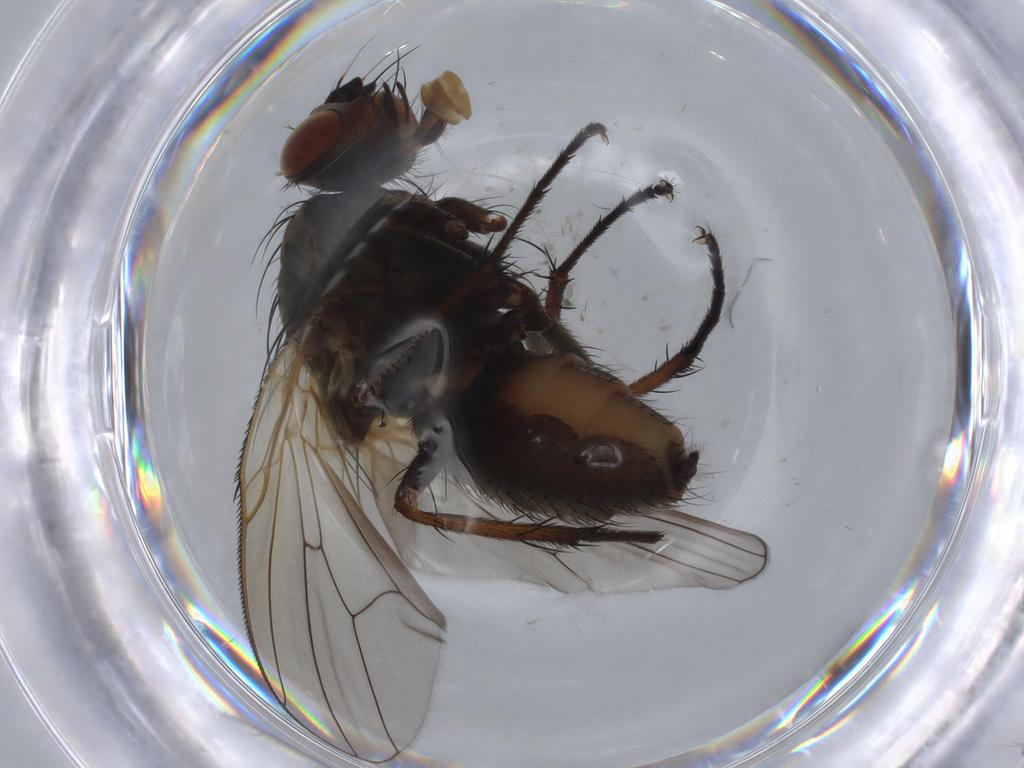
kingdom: Animalia
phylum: Arthropoda
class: Insecta
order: Diptera
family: Anthomyiidae
